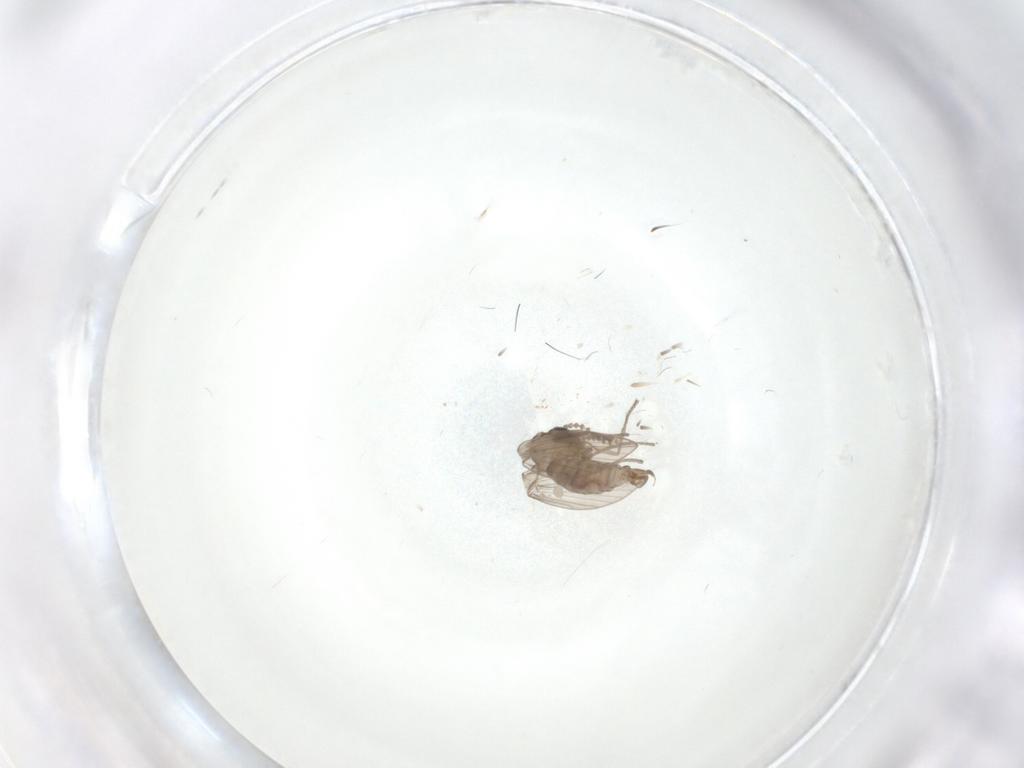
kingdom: Animalia
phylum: Arthropoda
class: Insecta
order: Diptera
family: Psychodidae
